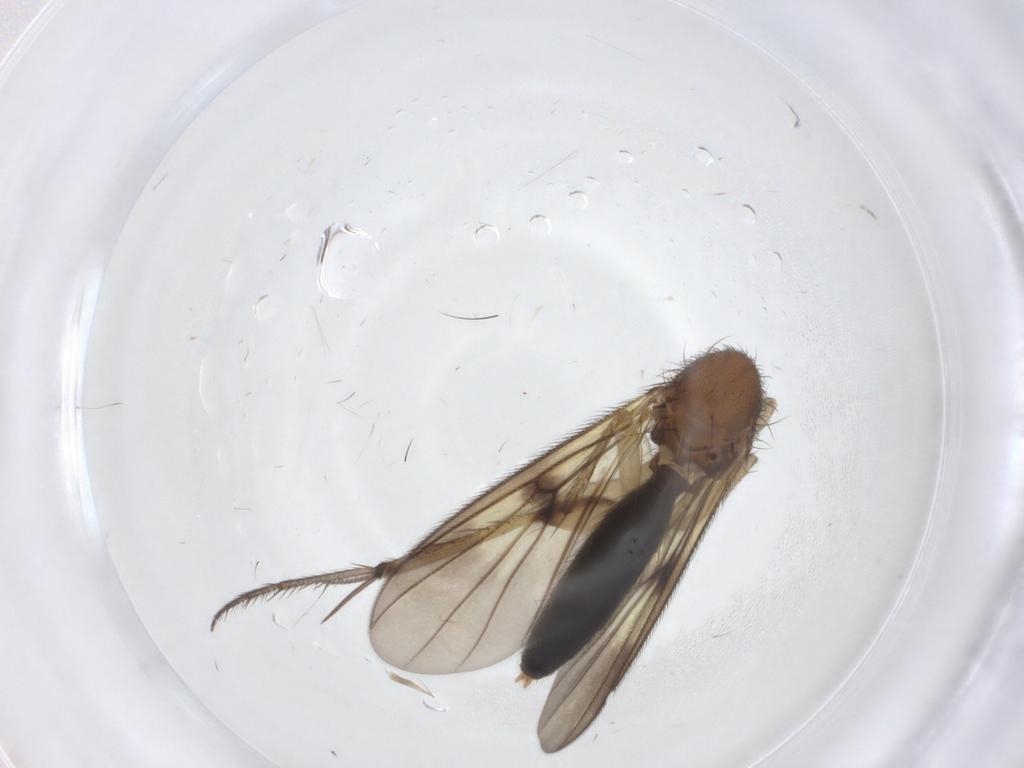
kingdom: Animalia
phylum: Arthropoda
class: Insecta
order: Diptera
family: Mycetophilidae
